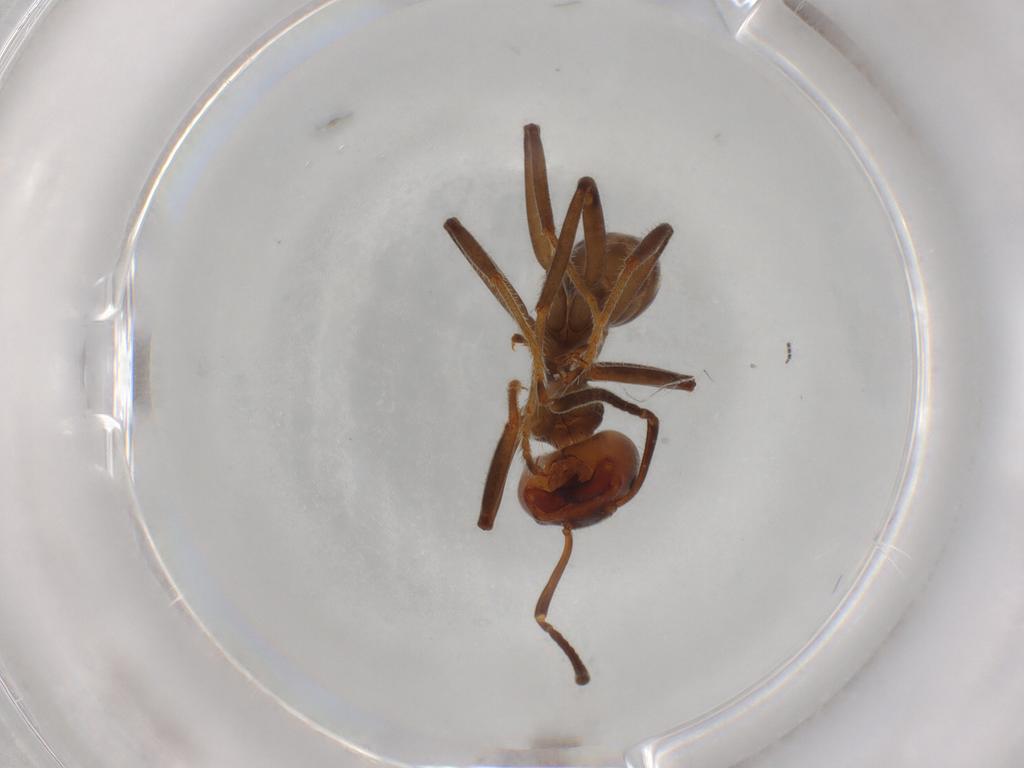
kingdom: Animalia
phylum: Arthropoda
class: Insecta
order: Hymenoptera
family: Formicidae
